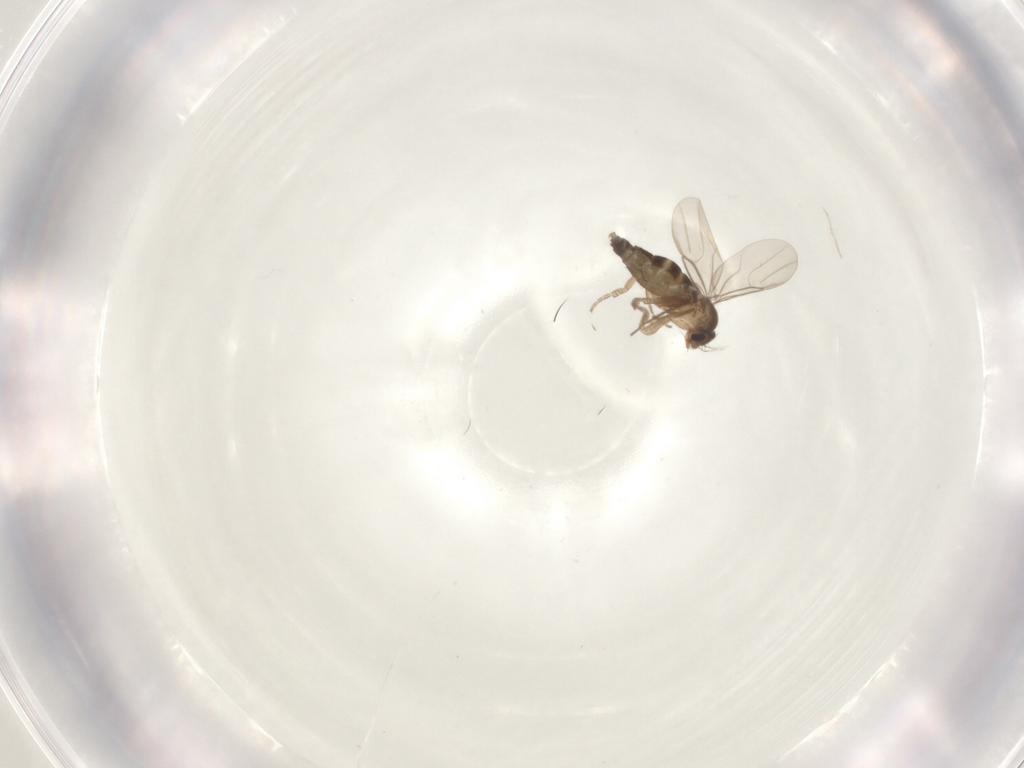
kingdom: Animalia
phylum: Arthropoda
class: Insecta
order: Diptera
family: Phoridae
